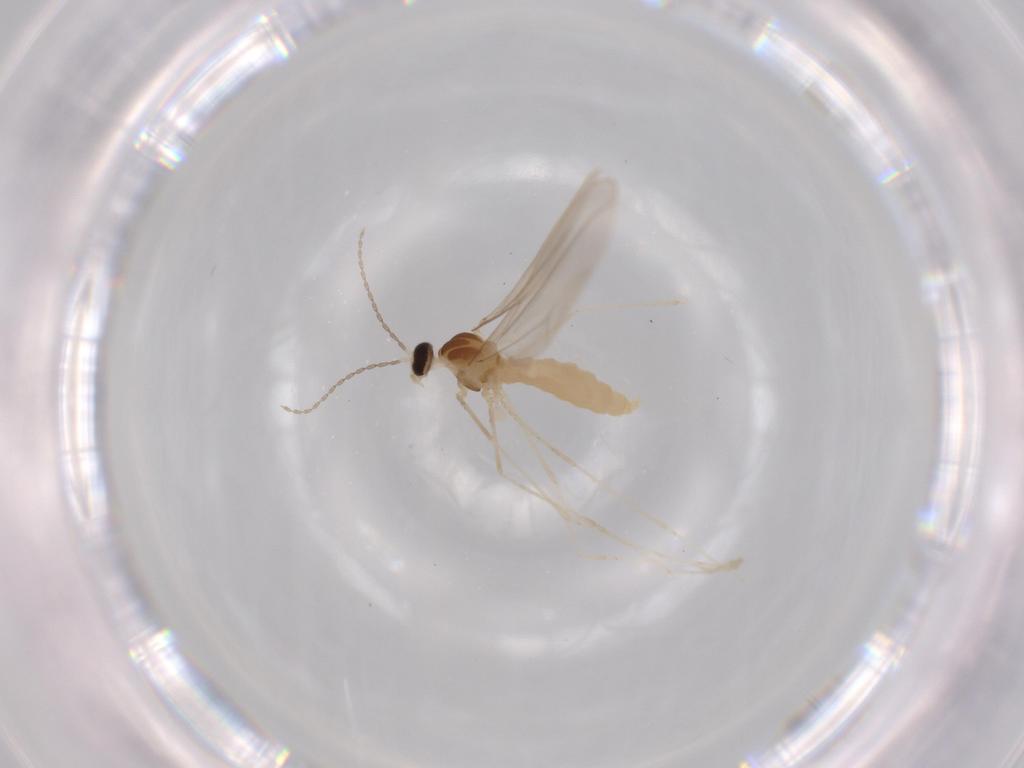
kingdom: Animalia
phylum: Arthropoda
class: Insecta
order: Diptera
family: Cecidomyiidae
